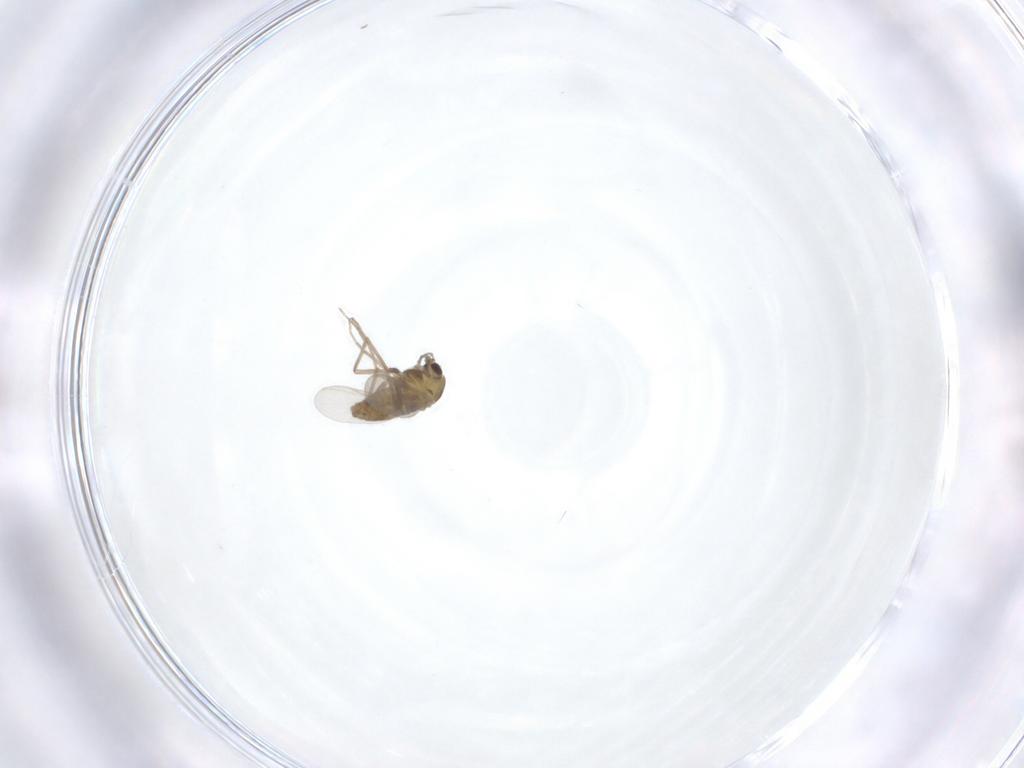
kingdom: Animalia
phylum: Arthropoda
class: Insecta
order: Diptera
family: Chironomidae
